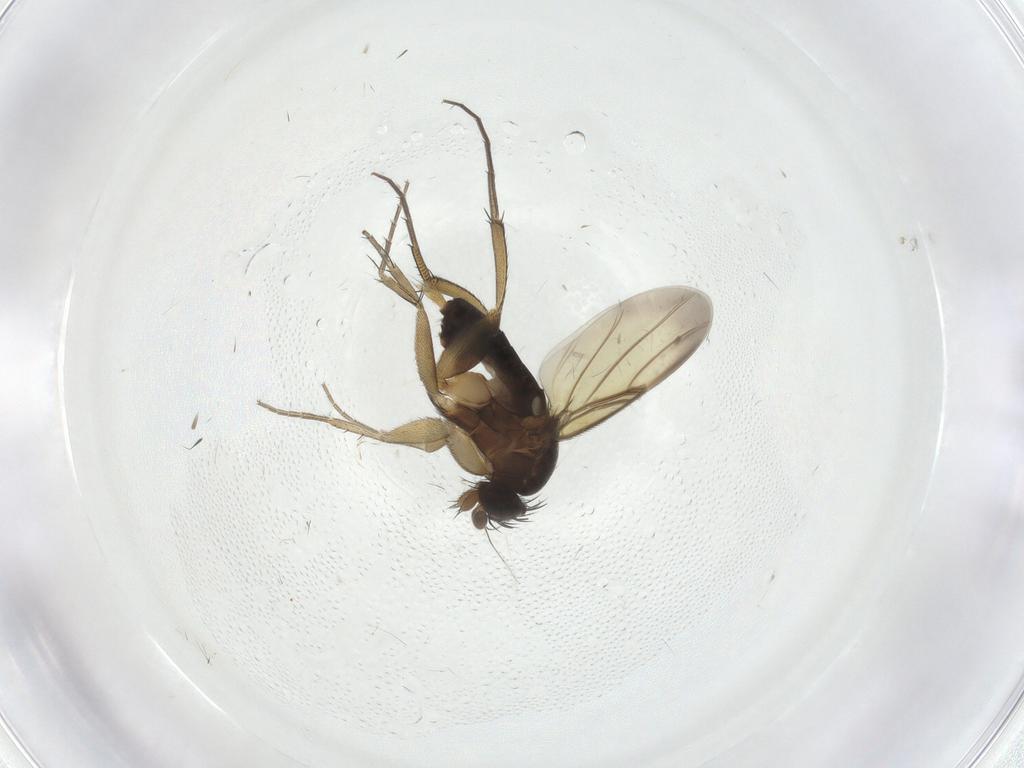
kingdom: Animalia
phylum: Arthropoda
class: Insecta
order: Diptera
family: Phoridae
